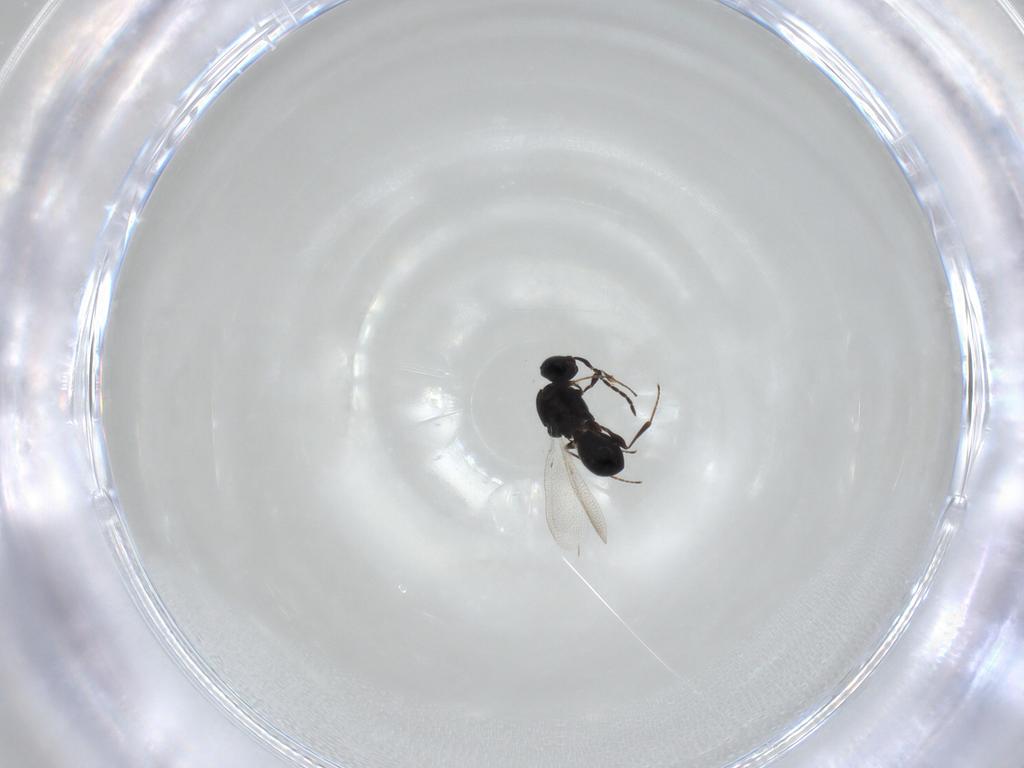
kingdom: Animalia
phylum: Arthropoda
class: Insecta
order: Hymenoptera
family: Platygastridae
